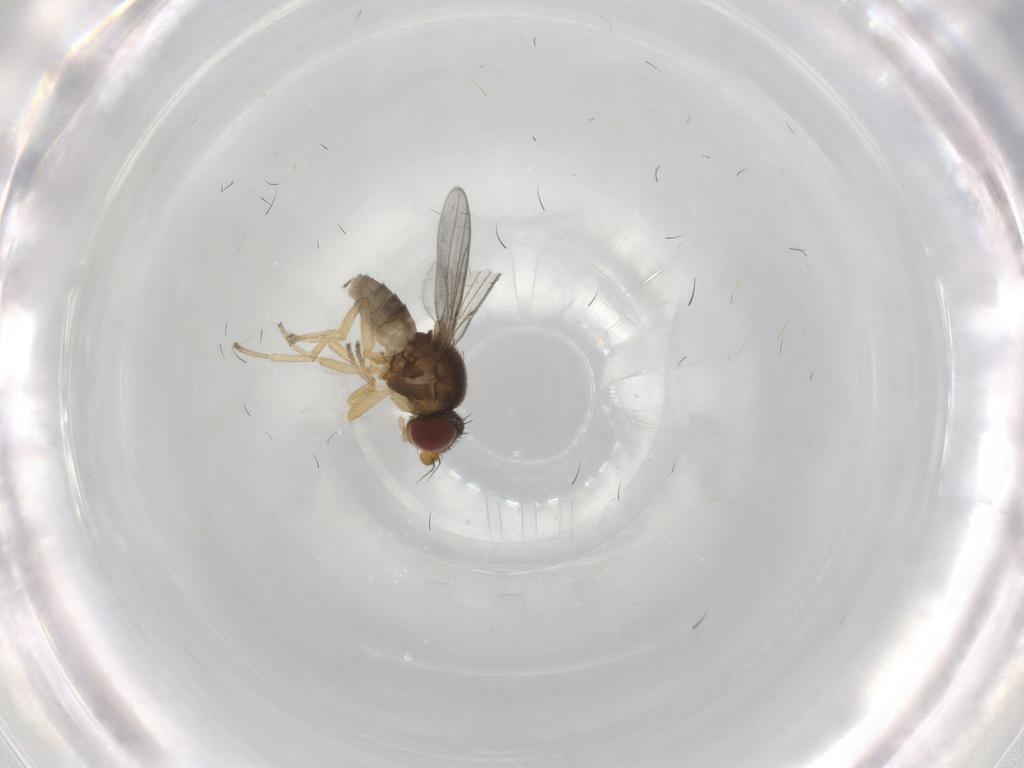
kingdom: Animalia
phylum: Arthropoda
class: Insecta
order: Diptera
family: Chloropidae
